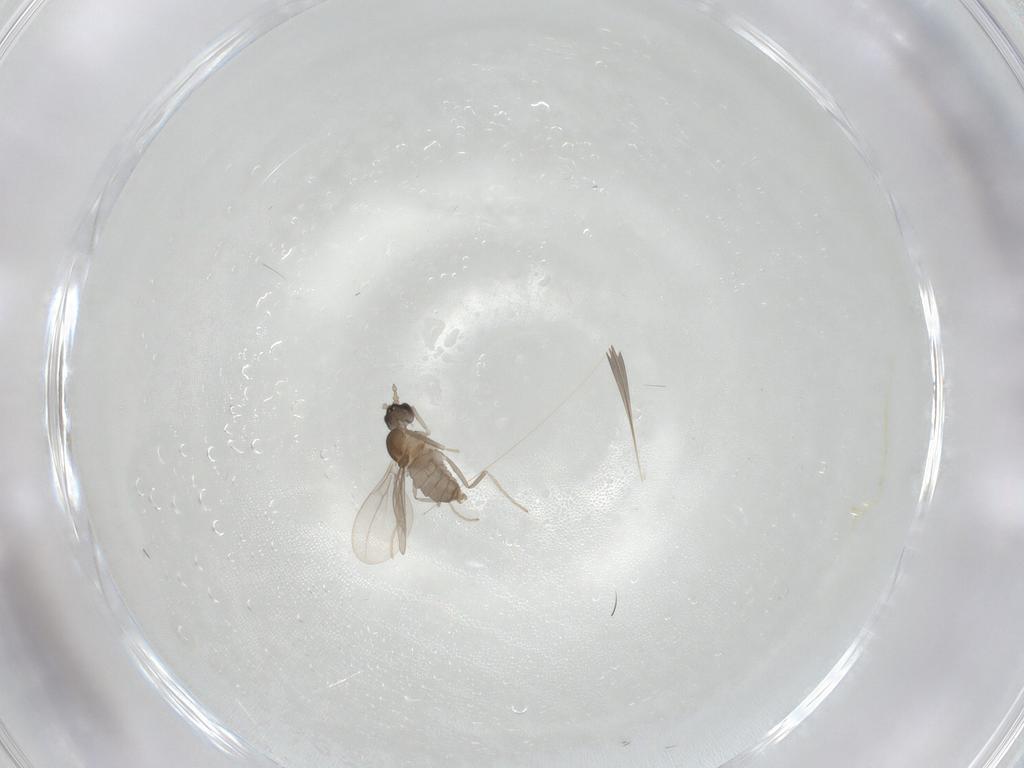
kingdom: Animalia
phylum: Arthropoda
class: Insecta
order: Diptera
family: Cecidomyiidae
